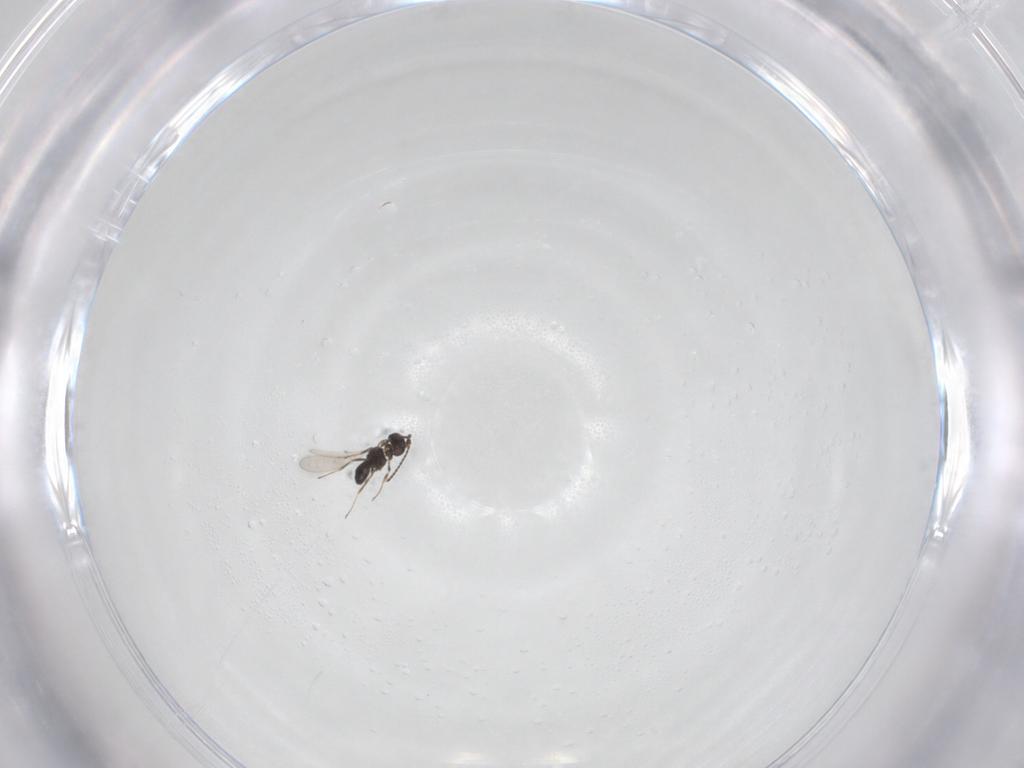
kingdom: Animalia
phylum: Arthropoda
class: Insecta
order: Hymenoptera
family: Scelionidae
